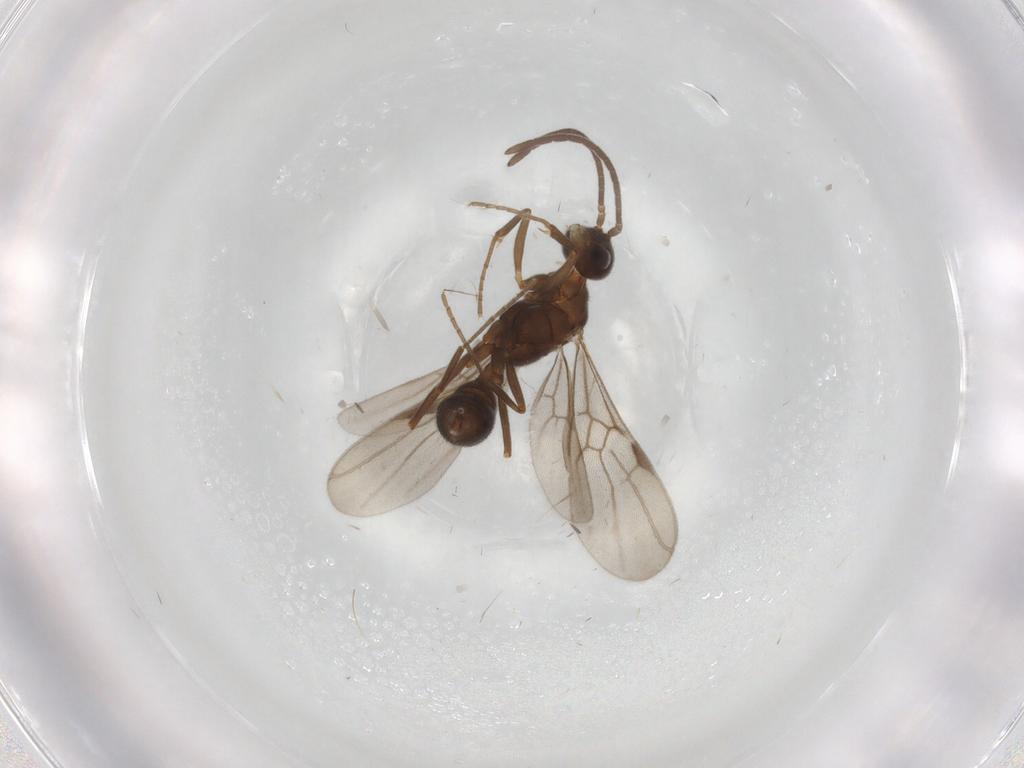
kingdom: Animalia
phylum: Arthropoda
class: Insecta
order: Hymenoptera
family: Formicidae
